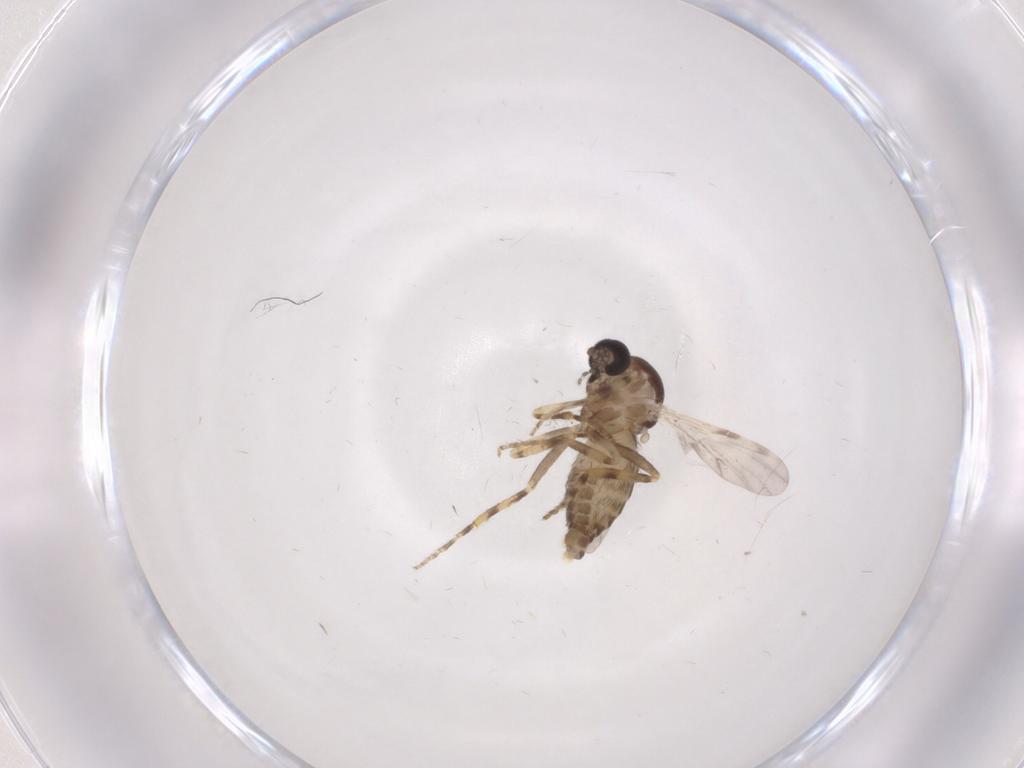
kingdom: Animalia
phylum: Arthropoda
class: Insecta
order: Diptera
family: Ceratopogonidae
